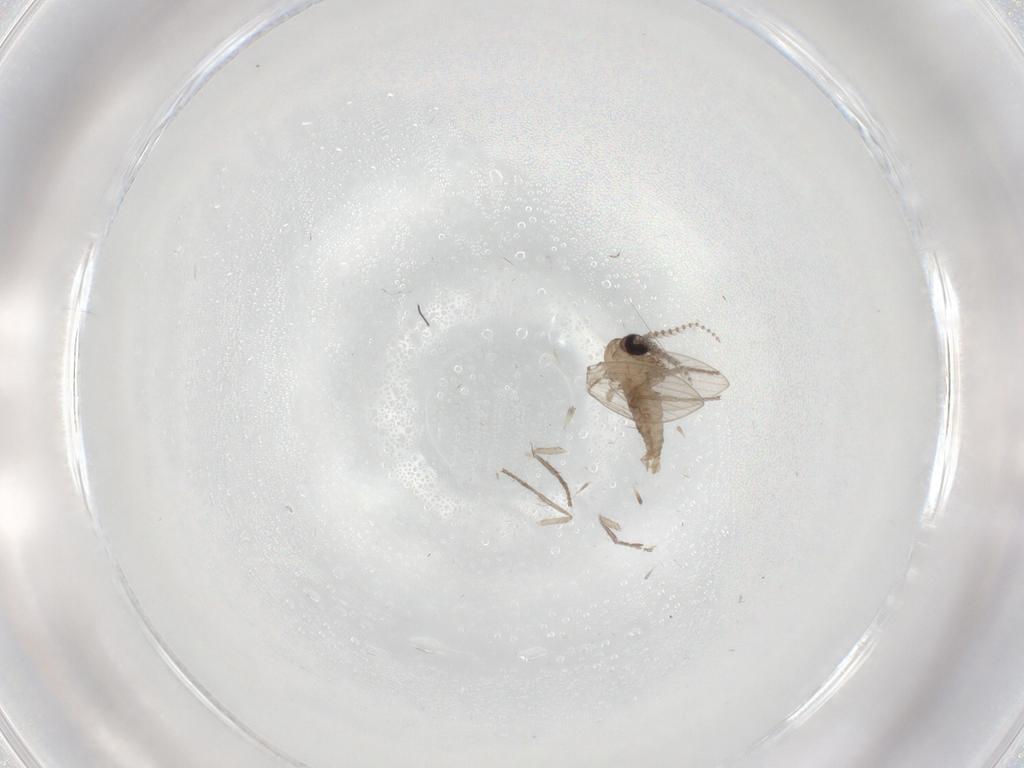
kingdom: Animalia
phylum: Arthropoda
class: Insecta
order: Diptera
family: Psychodidae
